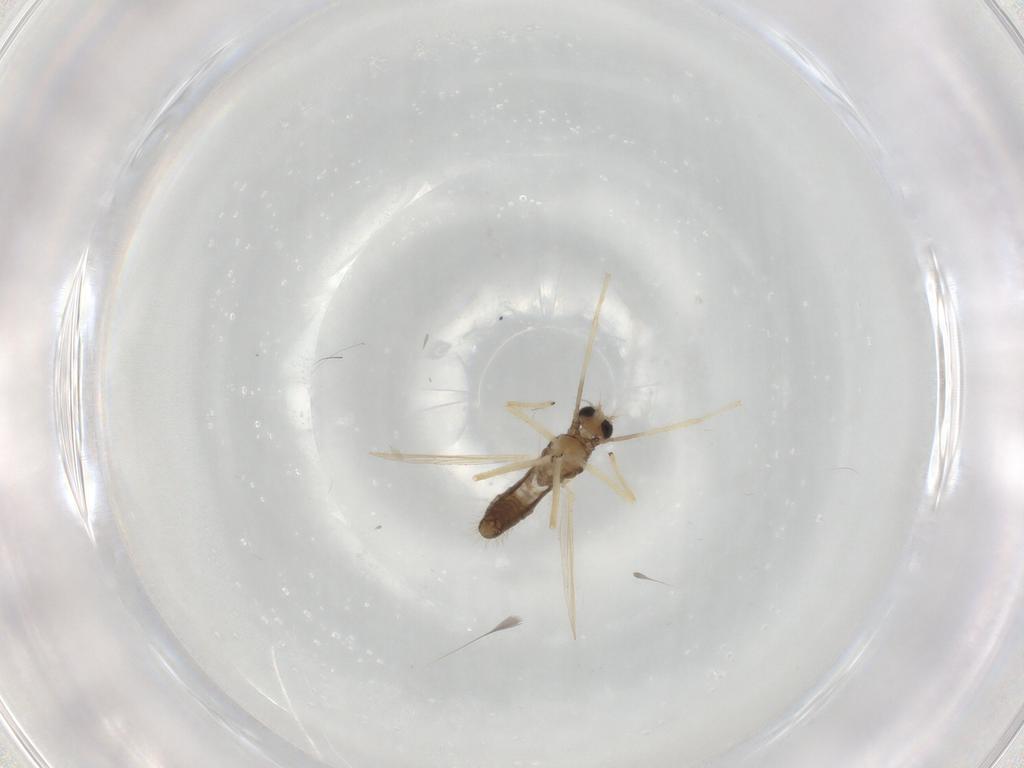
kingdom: Animalia
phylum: Arthropoda
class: Insecta
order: Diptera
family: Chironomidae
